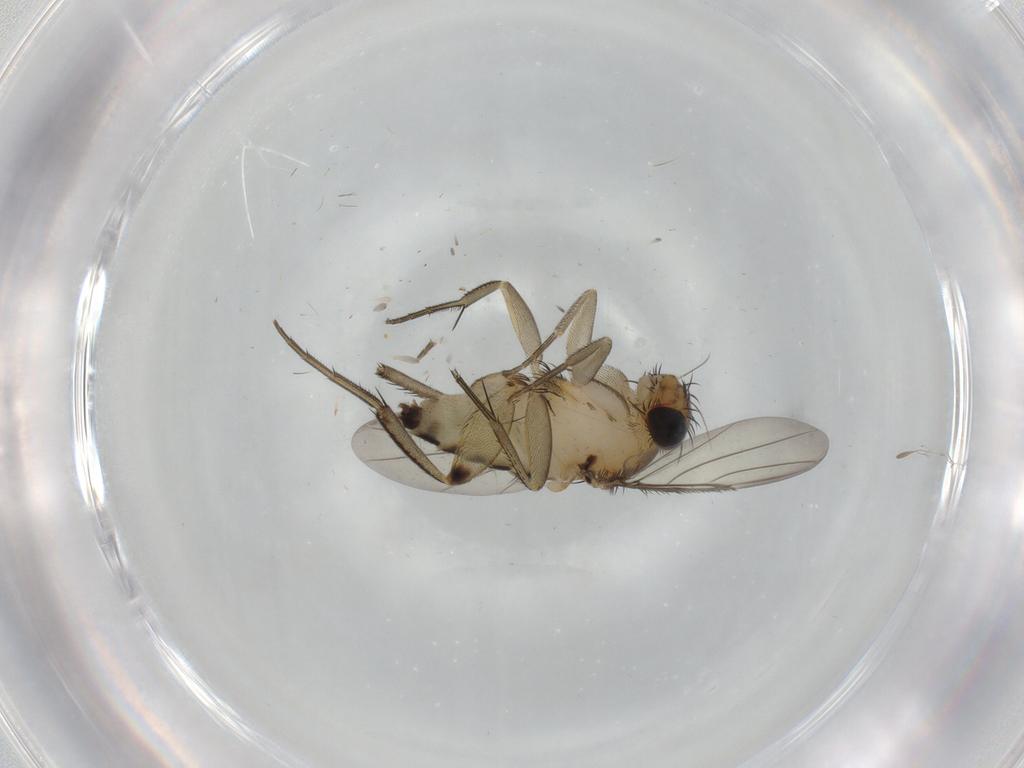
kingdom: Animalia
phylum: Arthropoda
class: Insecta
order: Diptera
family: Phoridae
